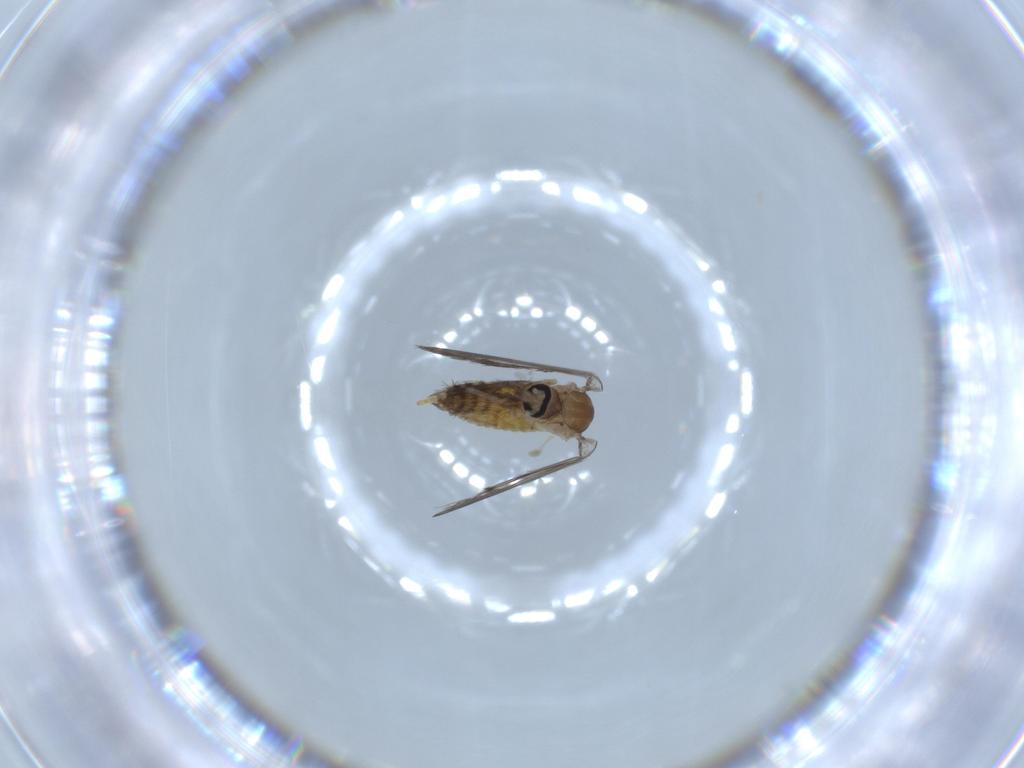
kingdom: Animalia
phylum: Arthropoda
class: Insecta
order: Diptera
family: Psychodidae
